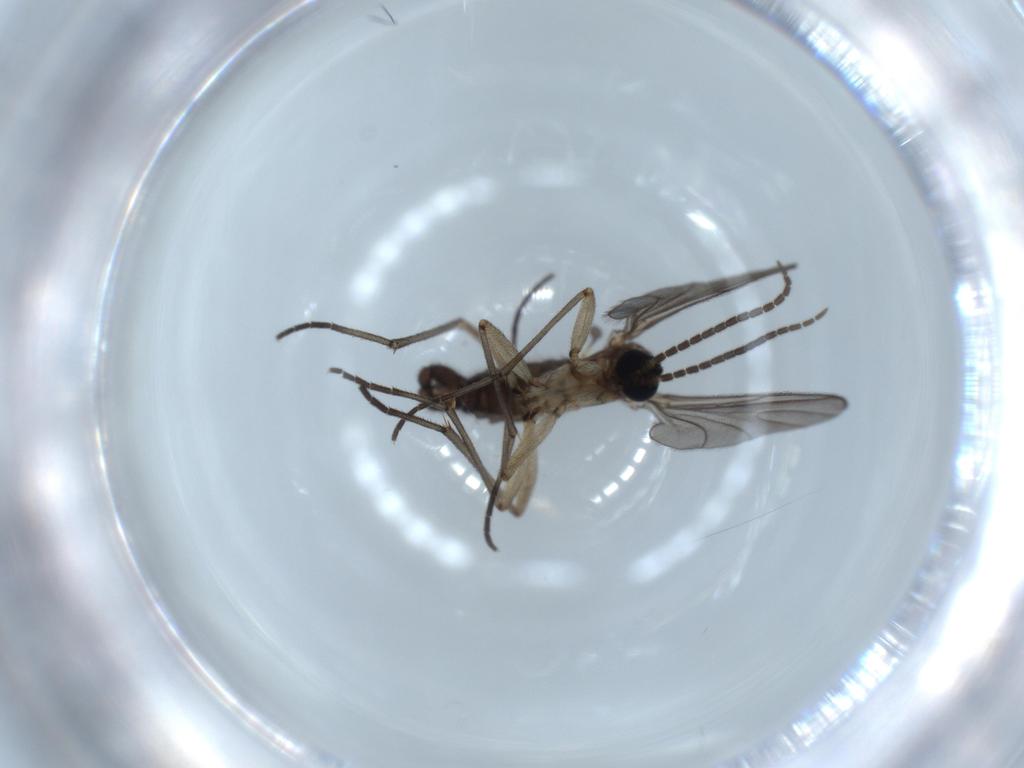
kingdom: Animalia
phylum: Arthropoda
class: Insecta
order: Diptera
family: Sciaridae
